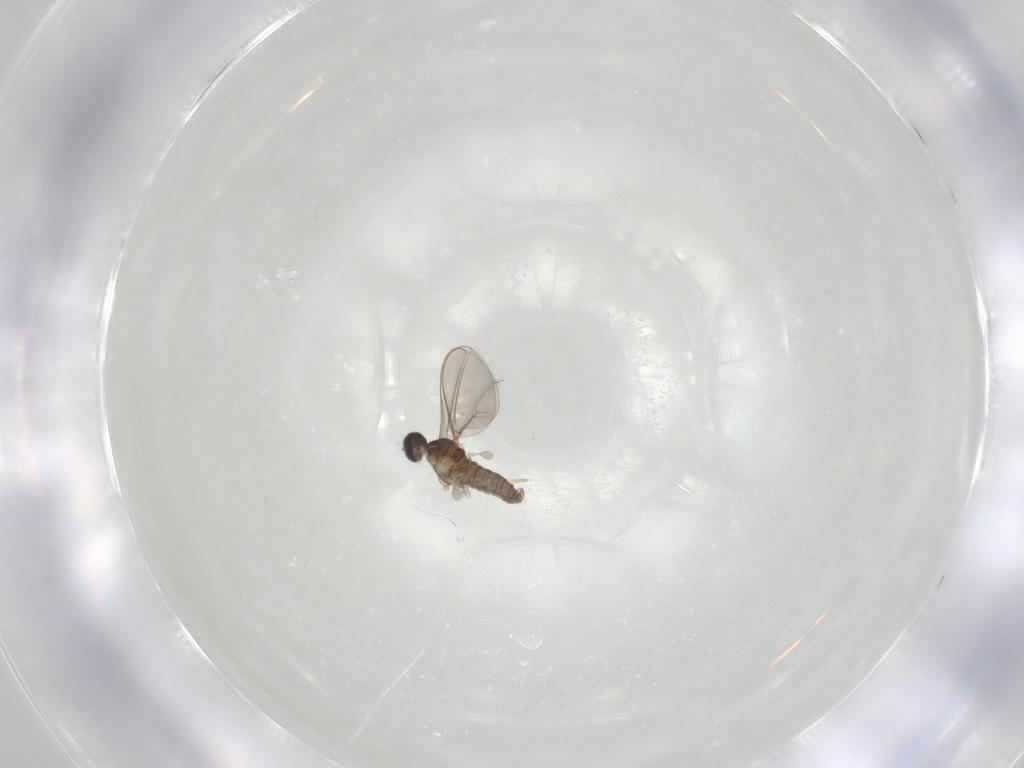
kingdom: Animalia
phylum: Arthropoda
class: Insecta
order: Diptera
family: Cecidomyiidae
